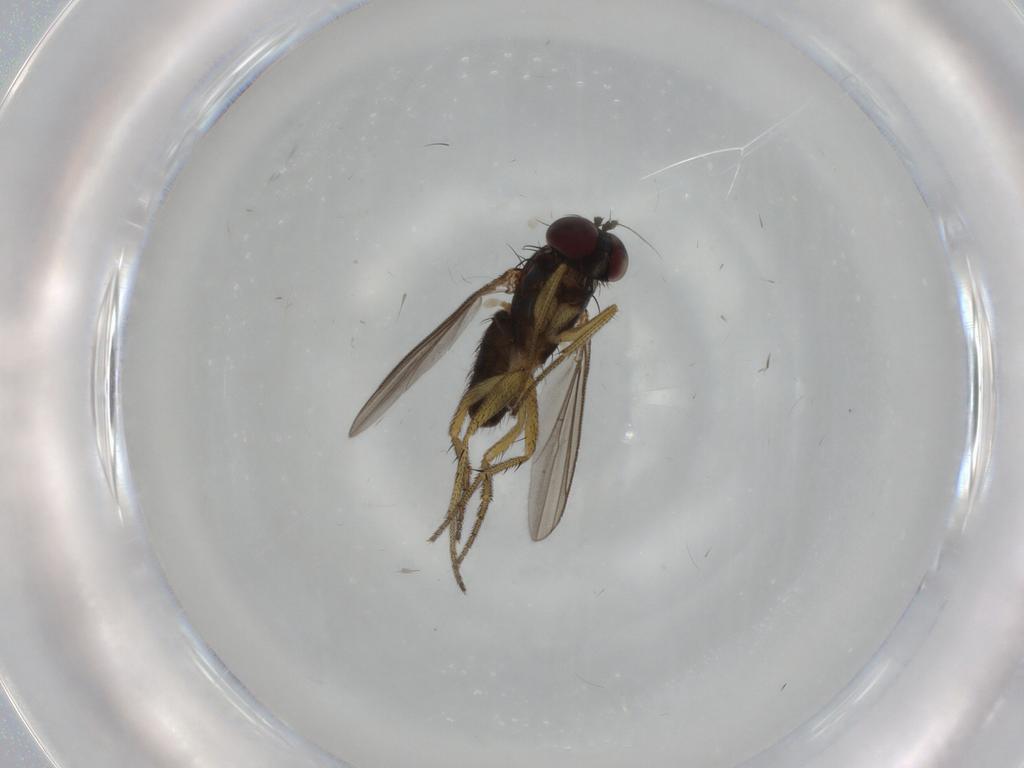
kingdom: Animalia
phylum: Arthropoda
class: Insecta
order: Diptera
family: Dolichopodidae
